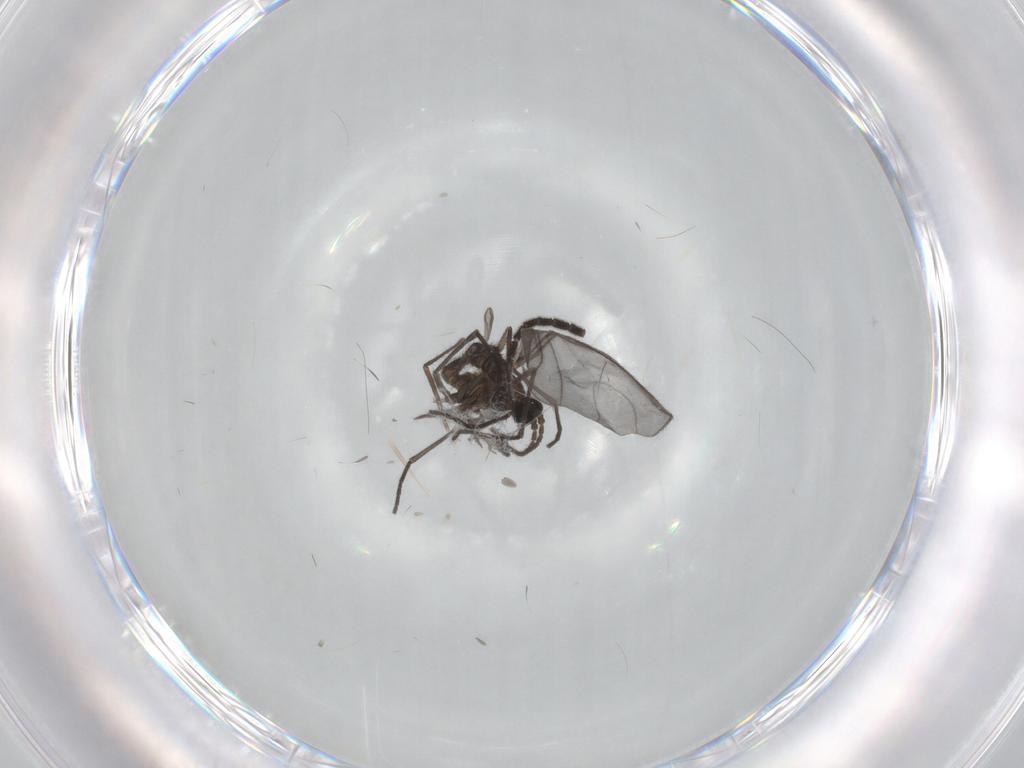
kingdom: Animalia
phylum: Arthropoda
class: Insecta
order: Diptera
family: Sciaridae
